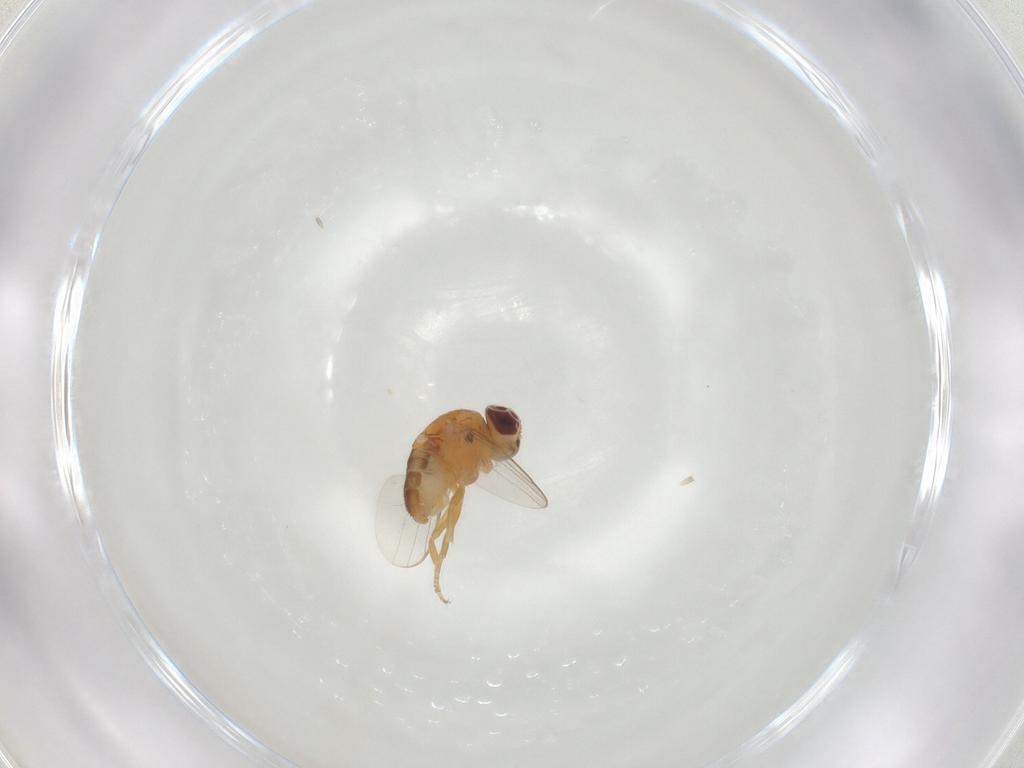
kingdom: Animalia
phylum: Arthropoda
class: Insecta
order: Diptera
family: Chloropidae
